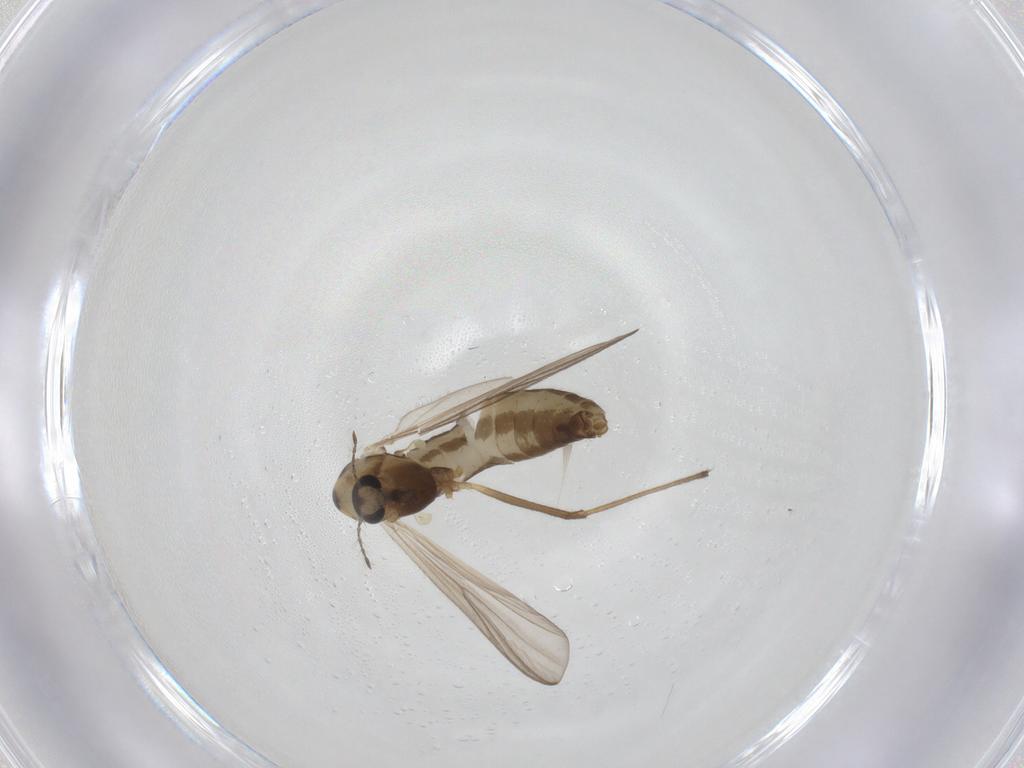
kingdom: Animalia
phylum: Arthropoda
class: Insecta
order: Diptera
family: Chironomidae
